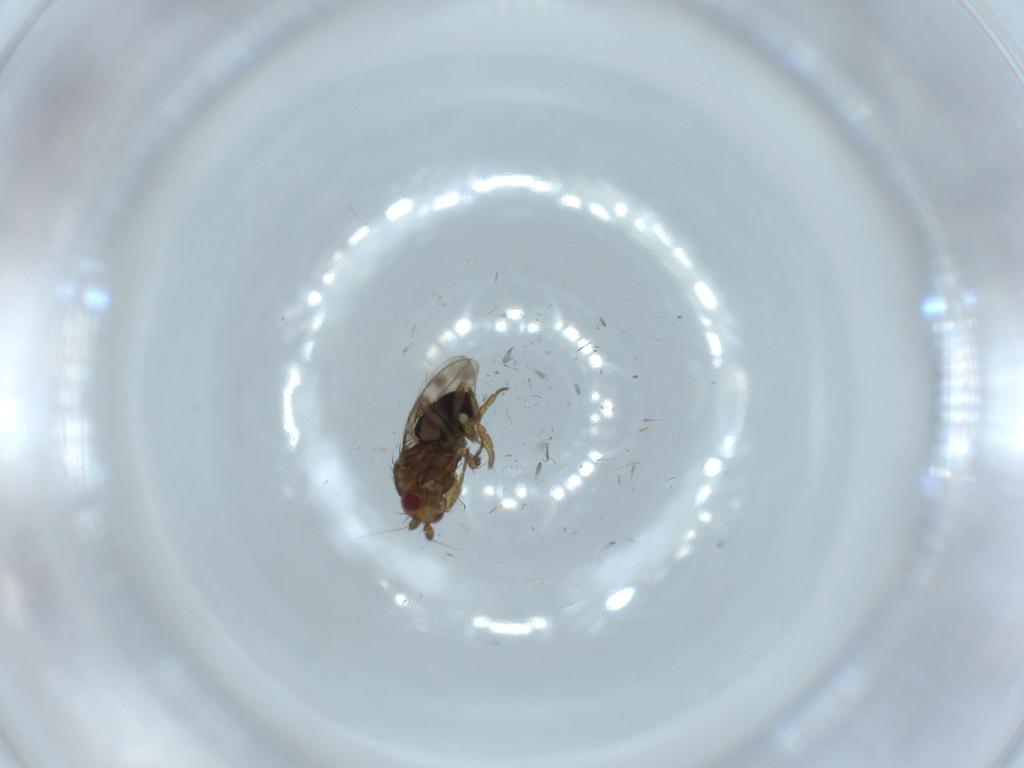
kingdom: Animalia
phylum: Arthropoda
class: Insecta
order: Diptera
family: Sphaeroceridae
